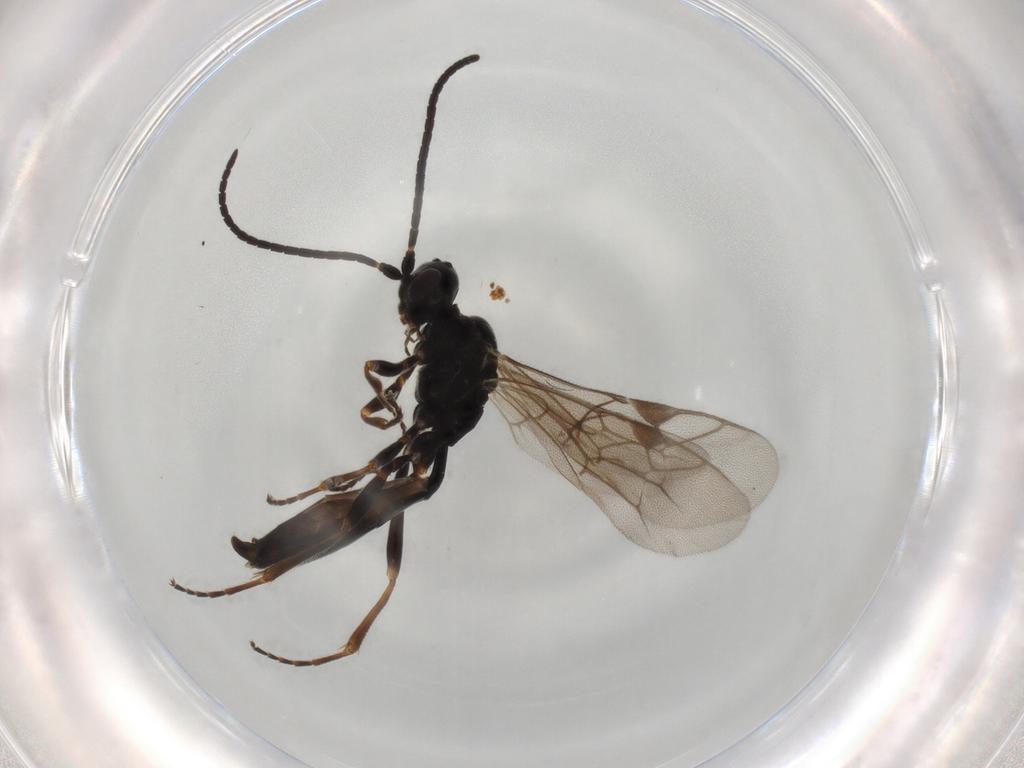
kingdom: Animalia
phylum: Arthropoda
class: Insecta
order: Hymenoptera
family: Ichneumonidae
